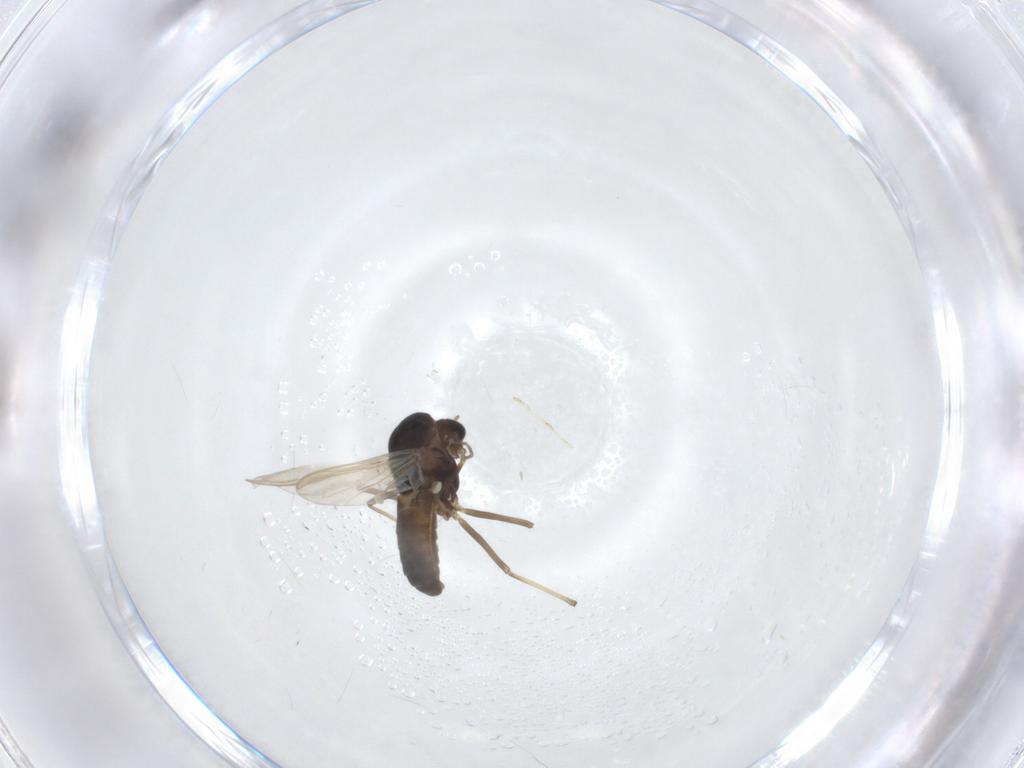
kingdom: Animalia
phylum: Arthropoda
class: Insecta
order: Diptera
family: Chironomidae
